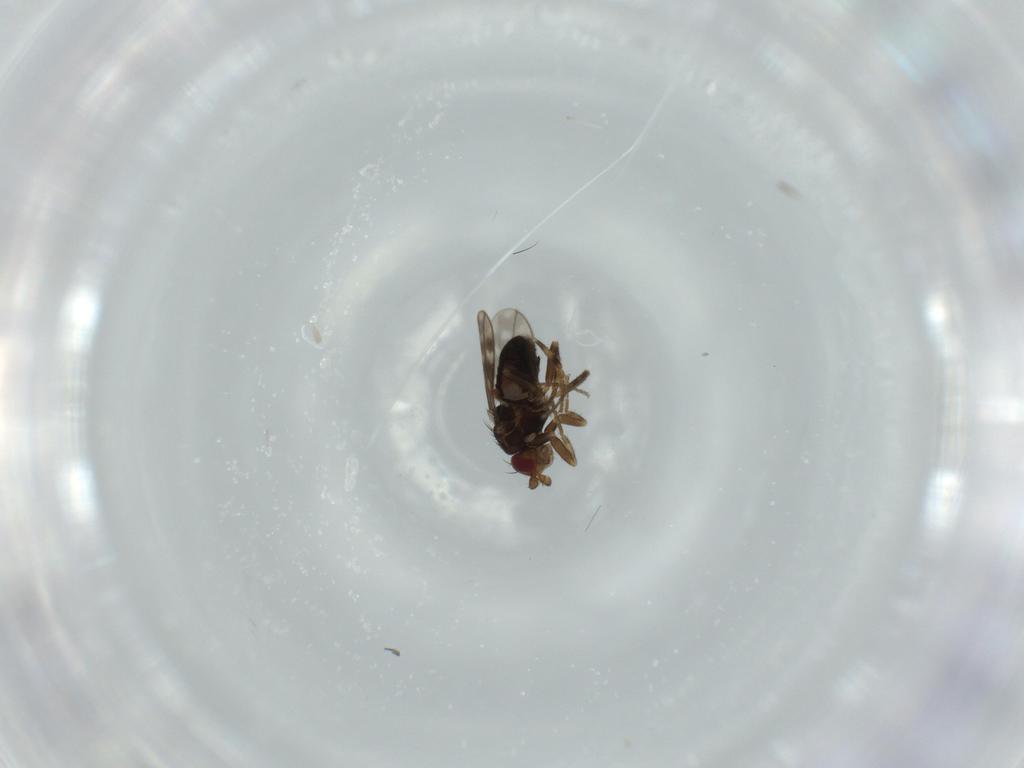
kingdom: Animalia
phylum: Arthropoda
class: Insecta
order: Diptera
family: Sphaeroceridae
